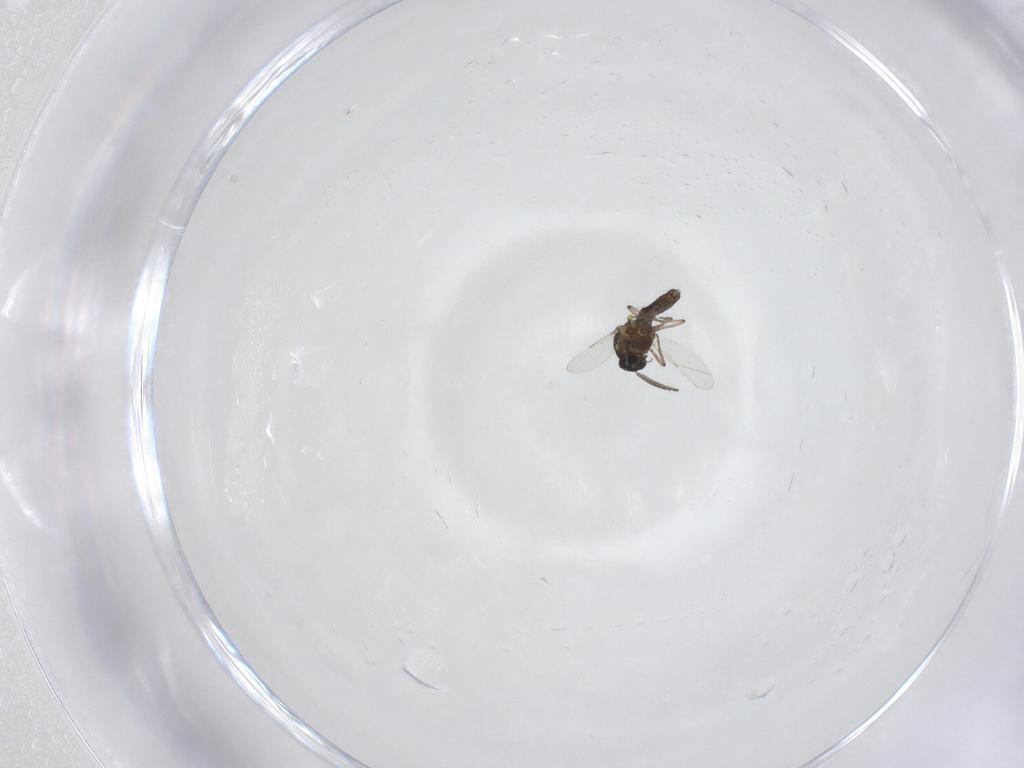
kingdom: Animalia
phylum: Arthropoda
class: Insecta
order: Diptera
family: Ceratopogonidae
